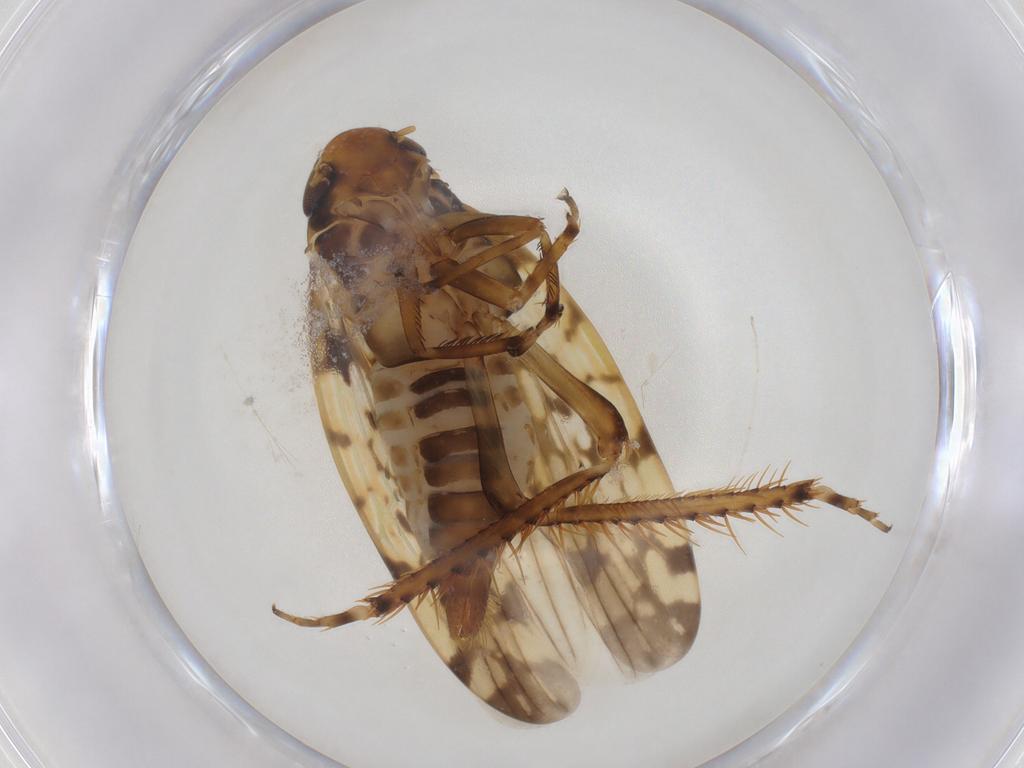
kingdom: Animalia
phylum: Arthropoda
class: Insecta
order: Hemiptera
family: Cicadellidae
